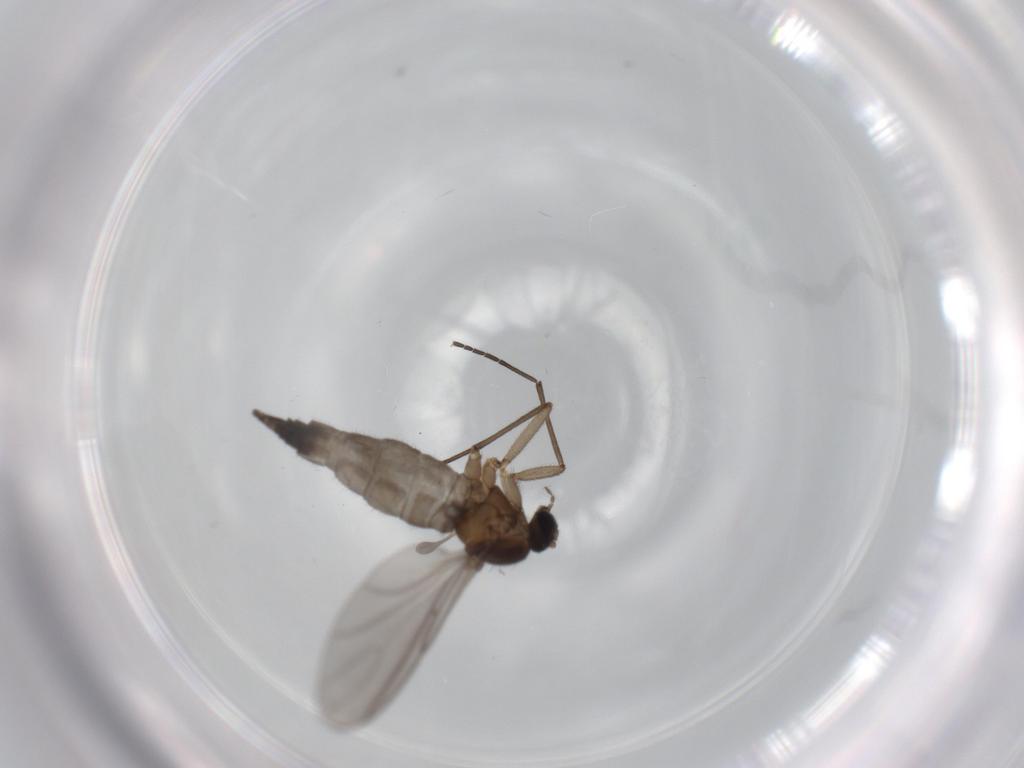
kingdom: Animalia
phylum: Arthropoda
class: Insecta
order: Diptera
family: Sciaridae
